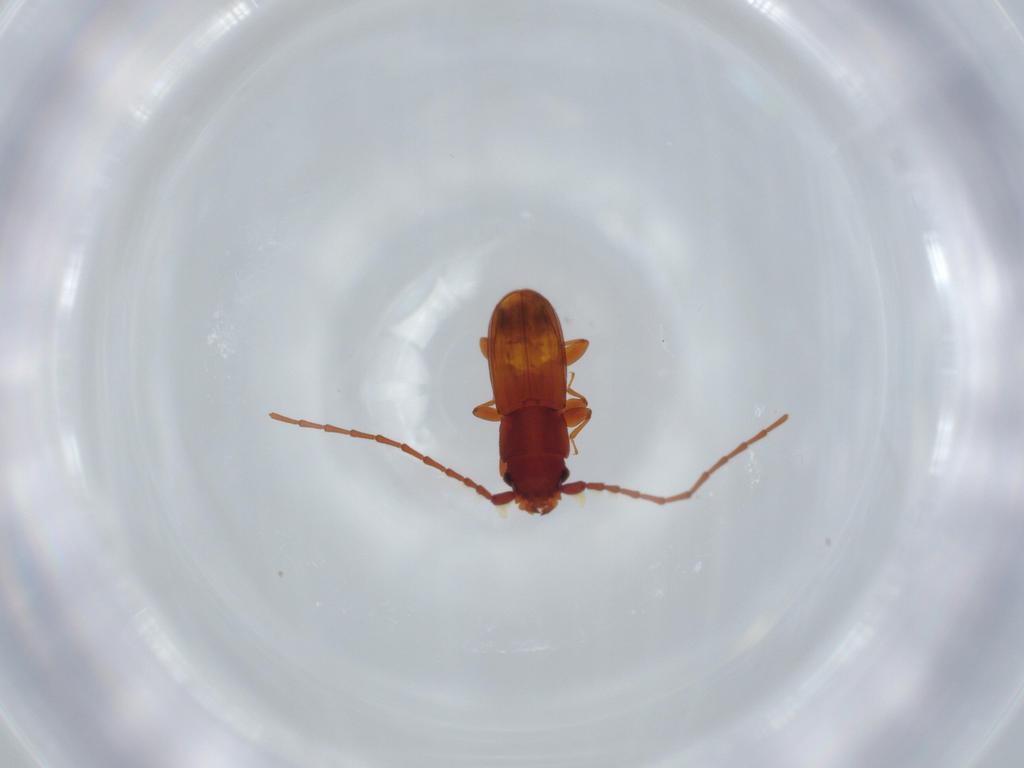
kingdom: Animalia
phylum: Arthropoda
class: Insecta
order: Coleoptera
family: Laemophloeidae
